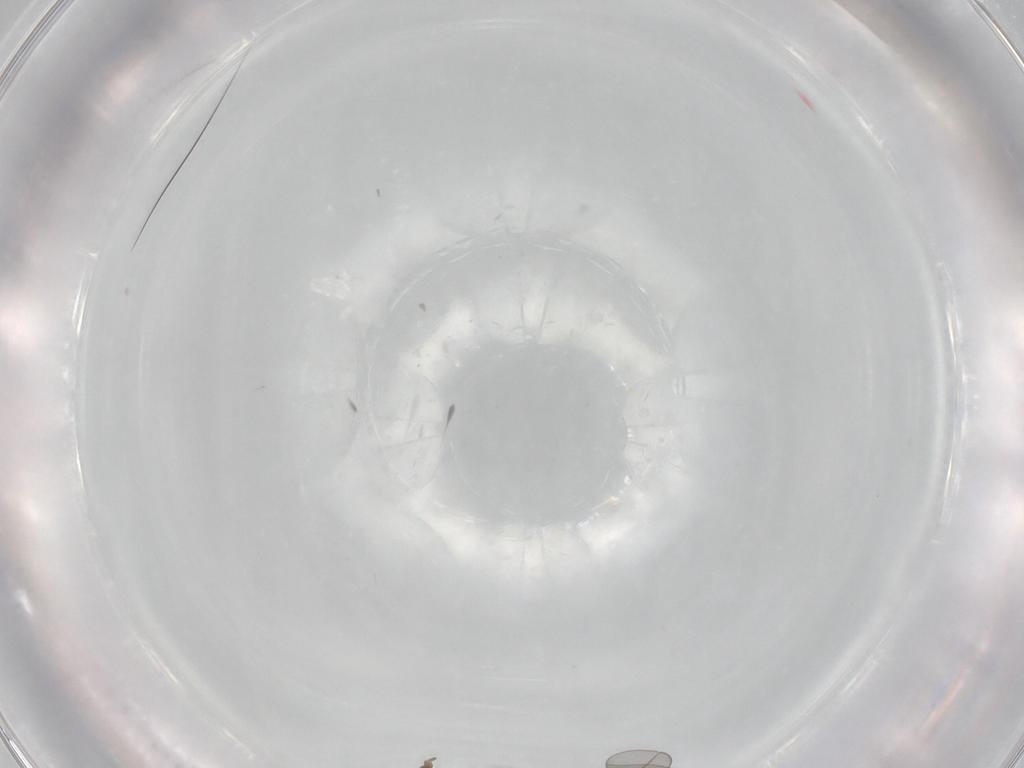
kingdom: Animalia
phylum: Arthropoda
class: Insecta
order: Diptera
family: Cecidomyiidae
